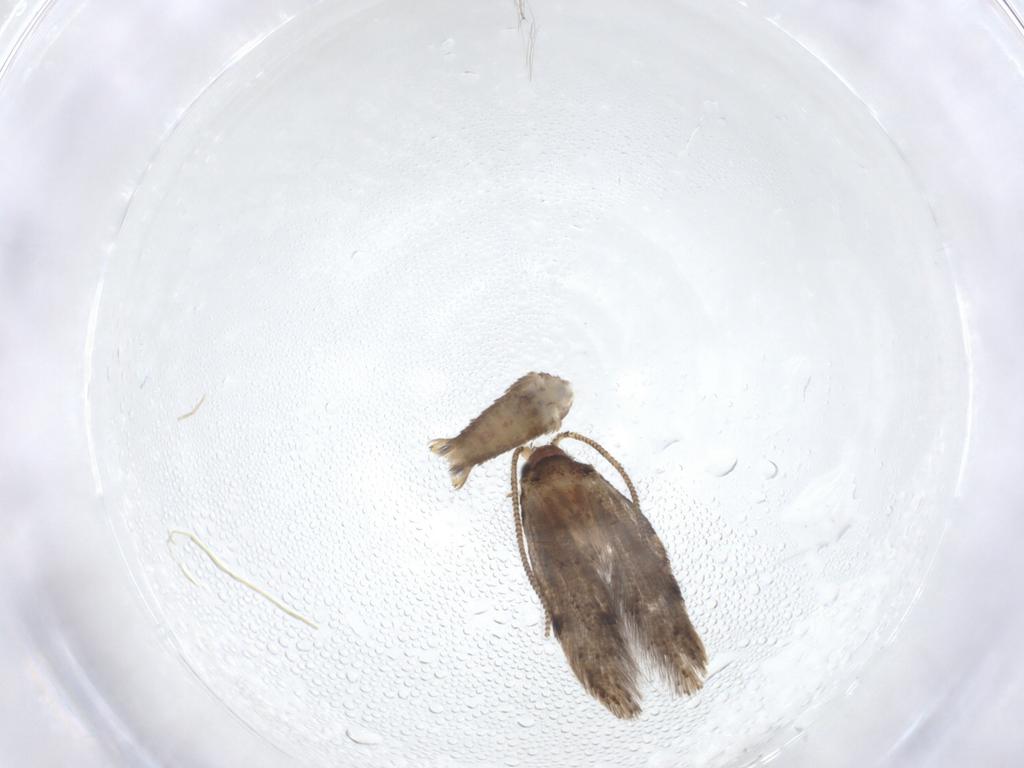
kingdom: Animalia
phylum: Arthropoda
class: Insecta
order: Lepidoptera
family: Meessiidae
